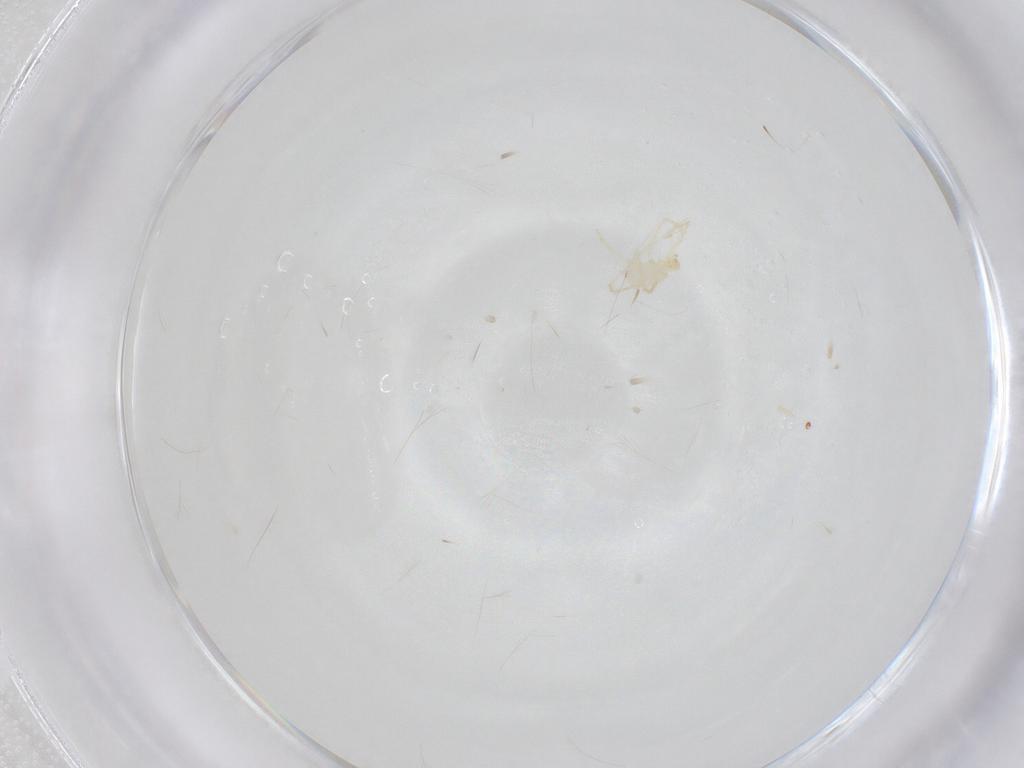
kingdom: Animalia
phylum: Arthropoda
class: Arachnida
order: Trombidiformes
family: Erythraeidae
